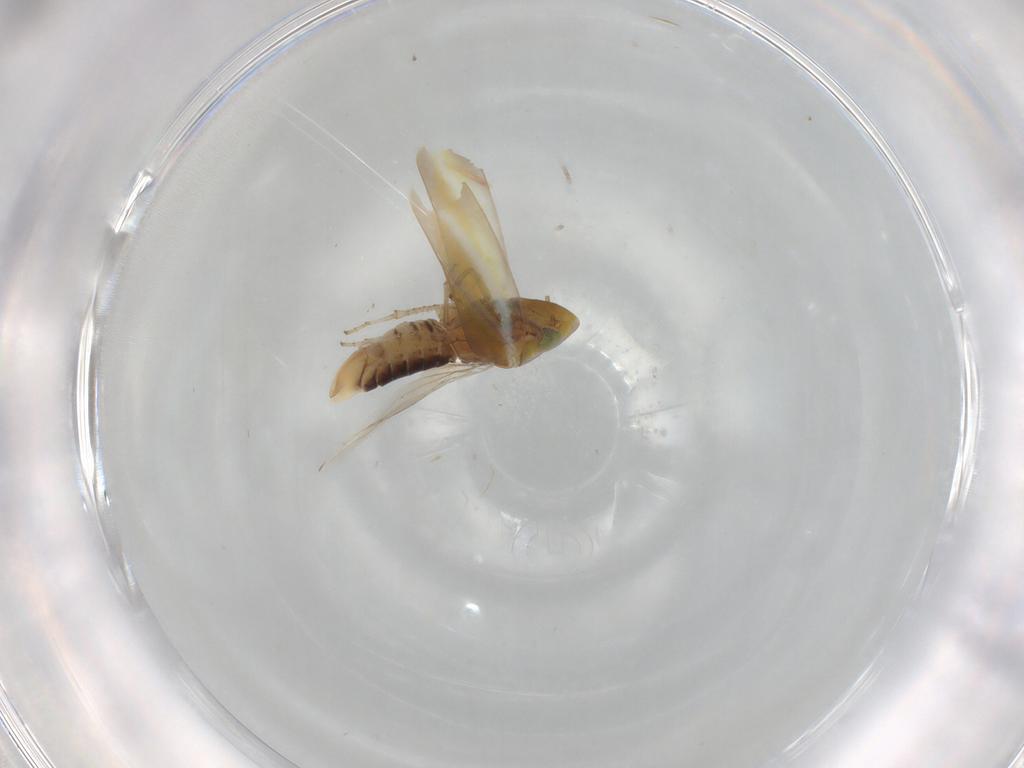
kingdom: Animalia
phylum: Arthropoda
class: Insecta
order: Hemiptera
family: Cicadellidae
